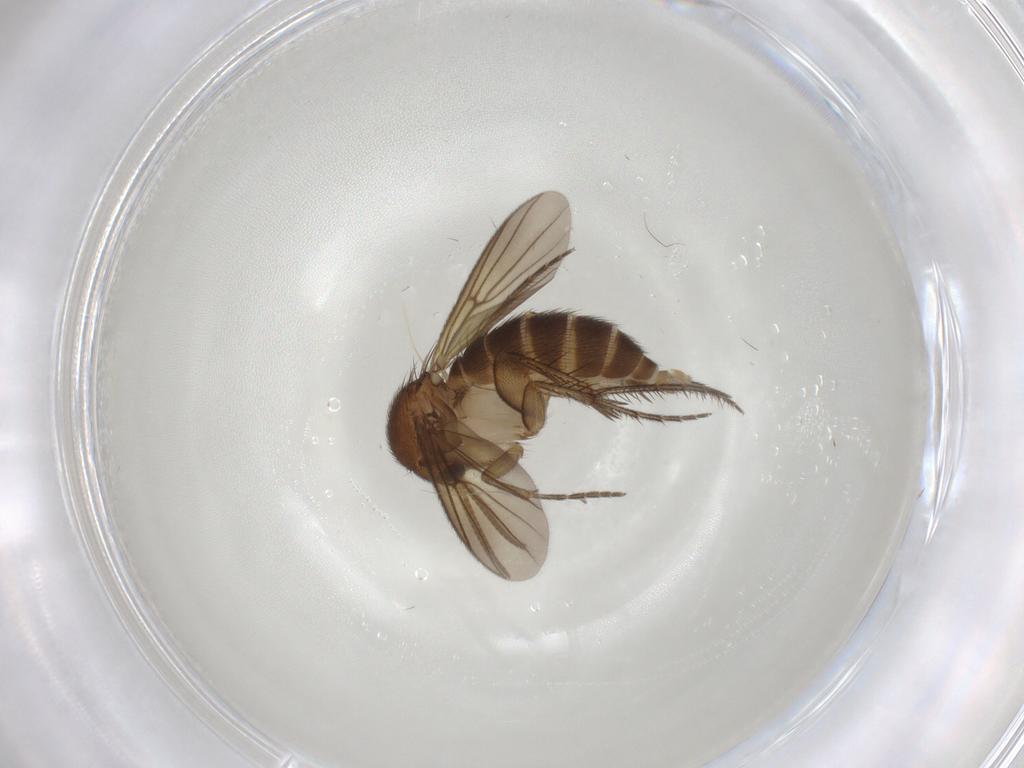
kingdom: Animalia
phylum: Arthropoda
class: Insecta
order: Diptera
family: Mycetophilidae
